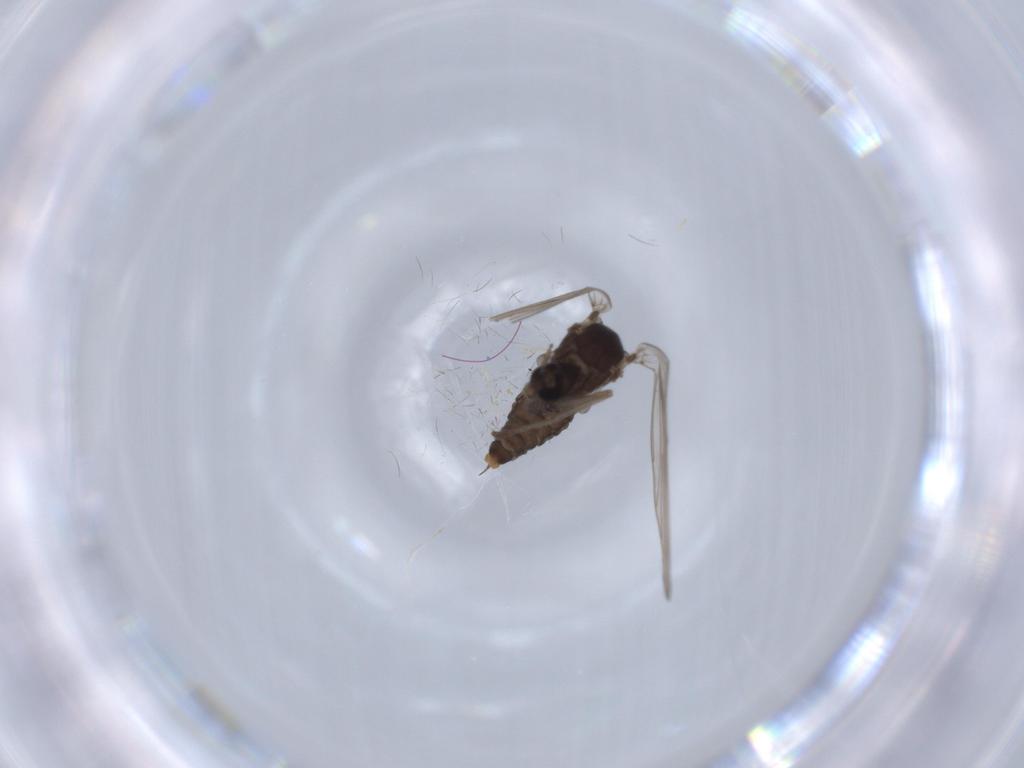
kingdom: Animalia
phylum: Arthropoda
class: Insecta
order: Diptera
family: Psychodidae
